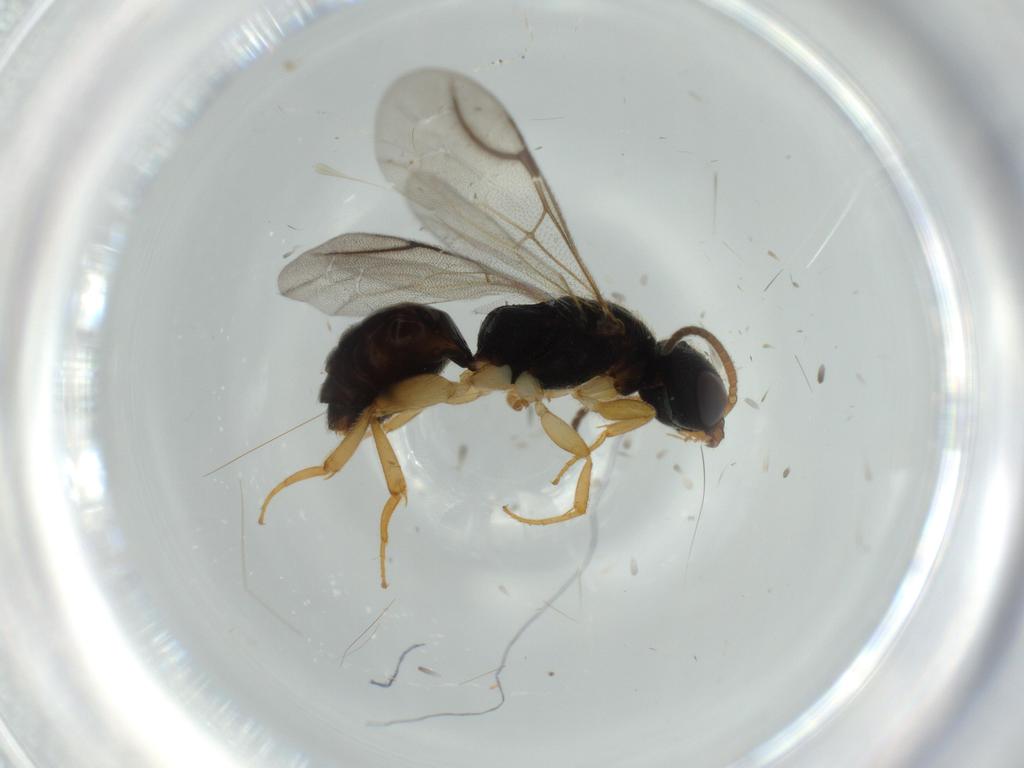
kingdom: Animalia
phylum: Arthropoda
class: Insecta
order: Hymenoptera
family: Bethylidae
